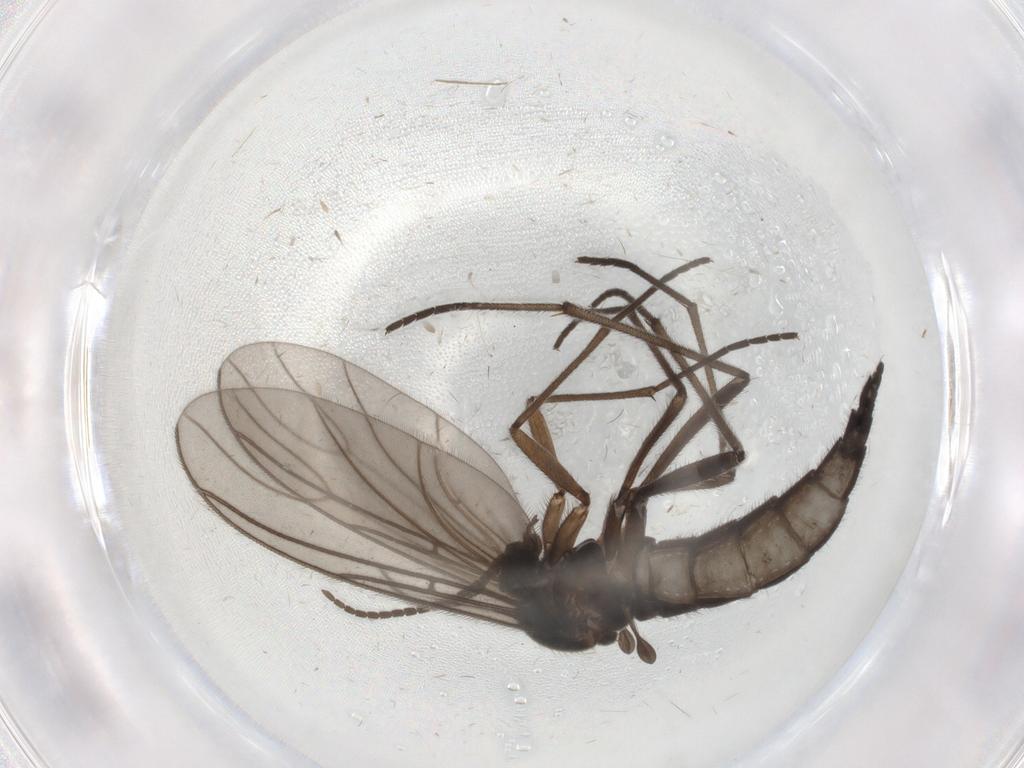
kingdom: Animalia
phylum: Arthropoda
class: Insecta
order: Diptera
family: Sciaridae
